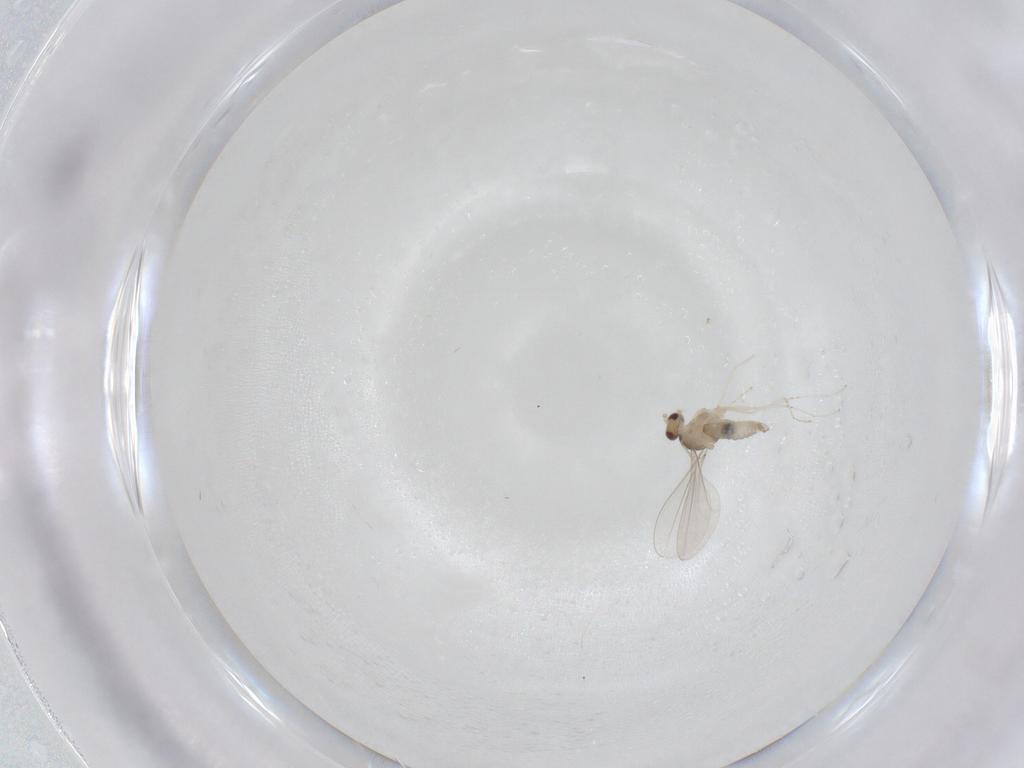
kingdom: Animalia
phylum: Arthropoda
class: Insecta
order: Diptera
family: Cecidomyiidae
